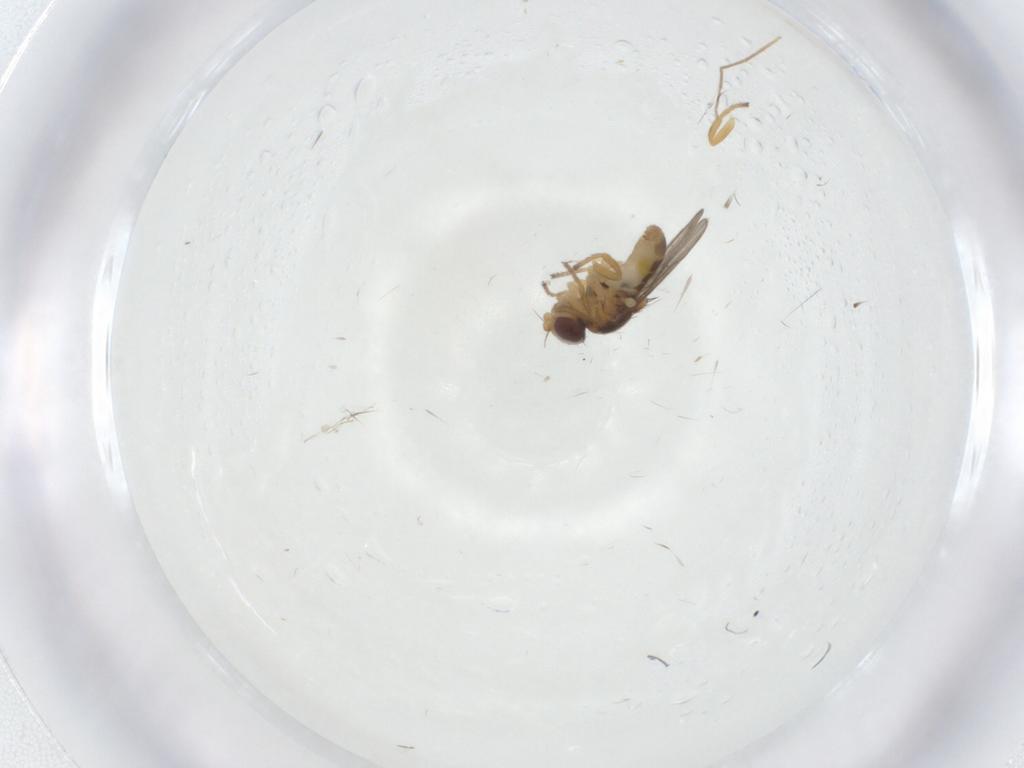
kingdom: Animalia
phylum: Arthropoda
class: Insecta
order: Diptera
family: Chloropidae
